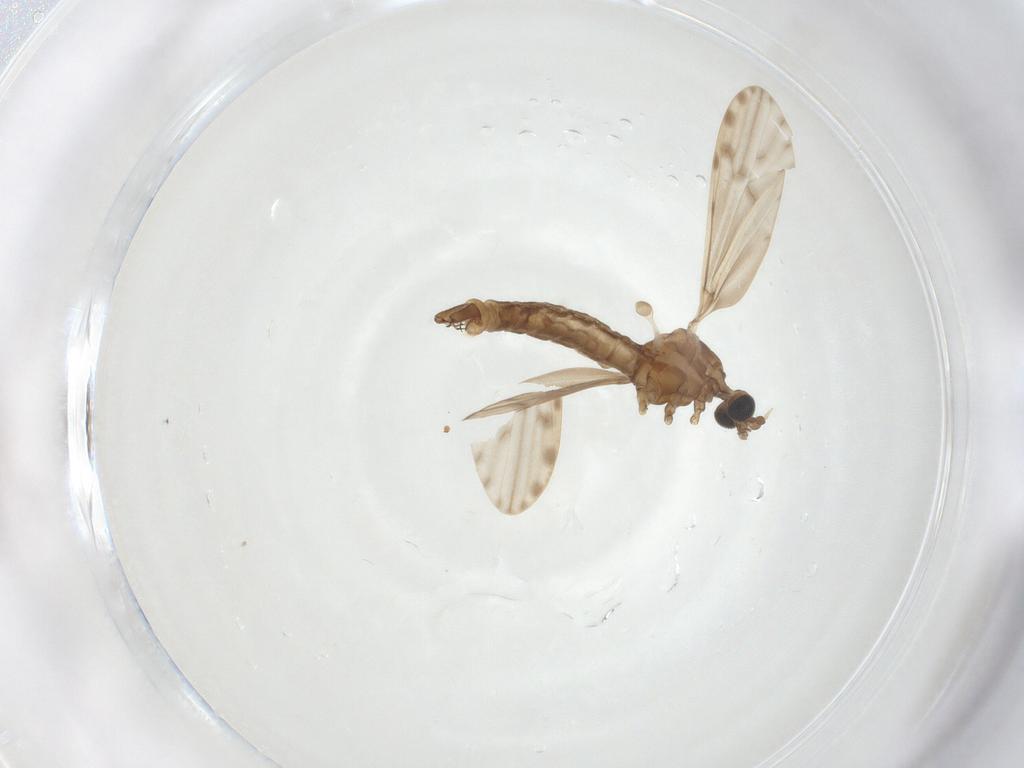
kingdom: Animalia
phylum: Arthropoda
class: Insecta
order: Diptera
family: Limoniidae
